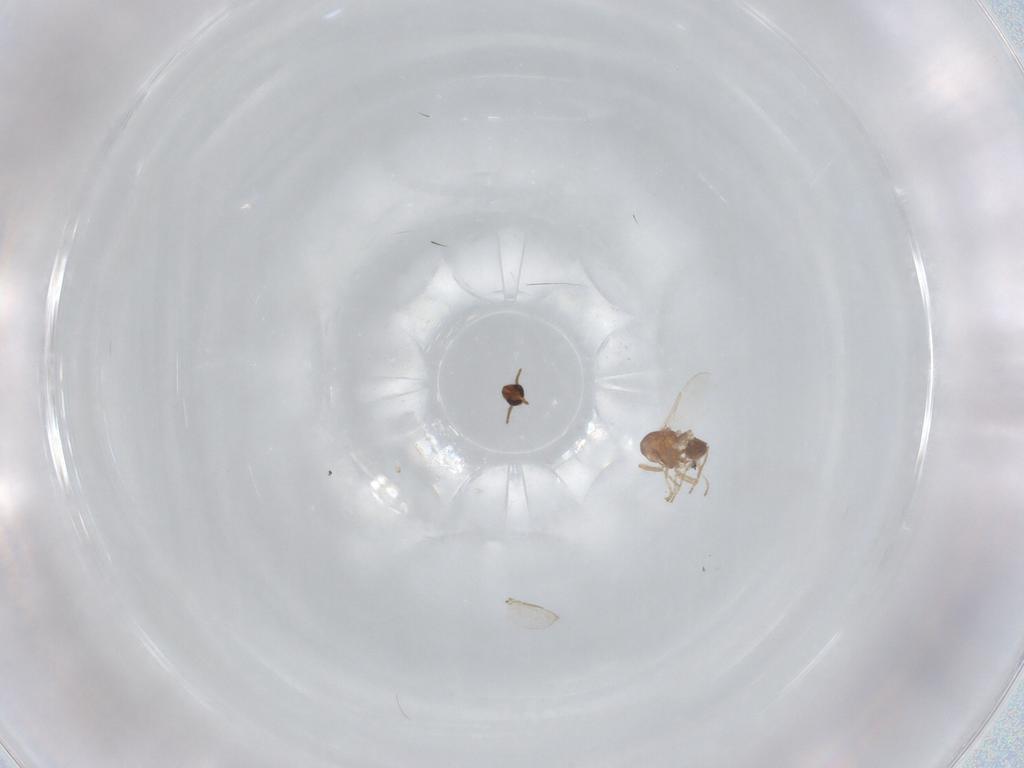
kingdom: Animalia
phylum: Arthropoda
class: Insecta
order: Diptera
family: Ceratopogonidae
